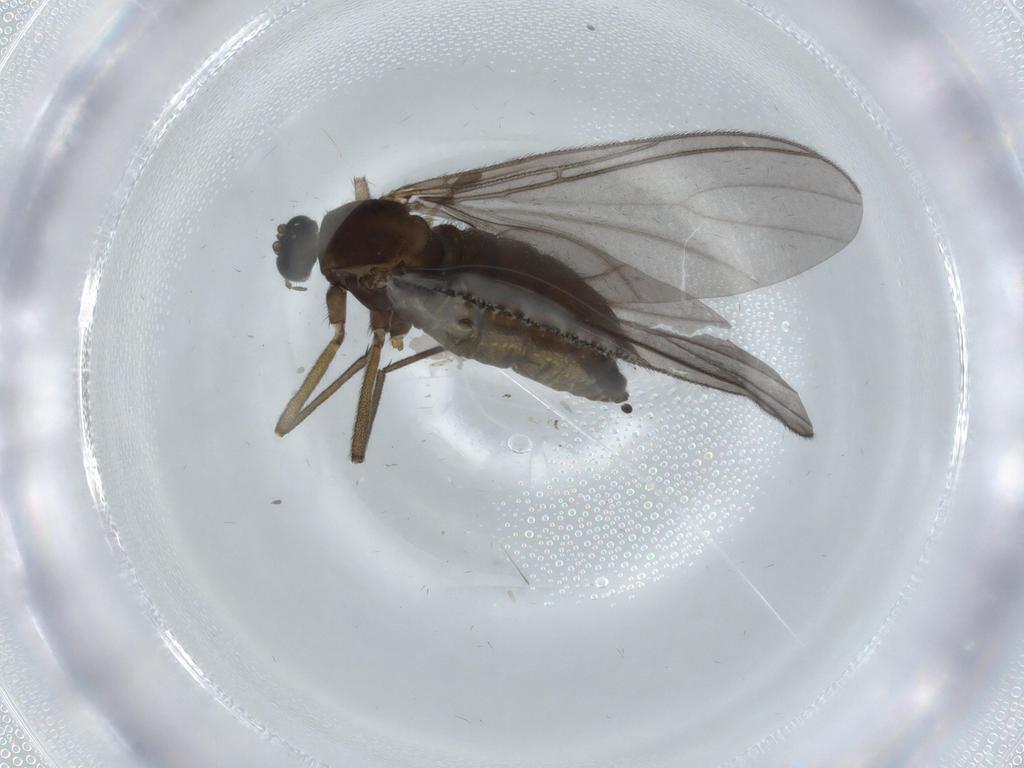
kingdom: Animalia
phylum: Arthropoda
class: Insecta
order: Diptera
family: Sciaridae
